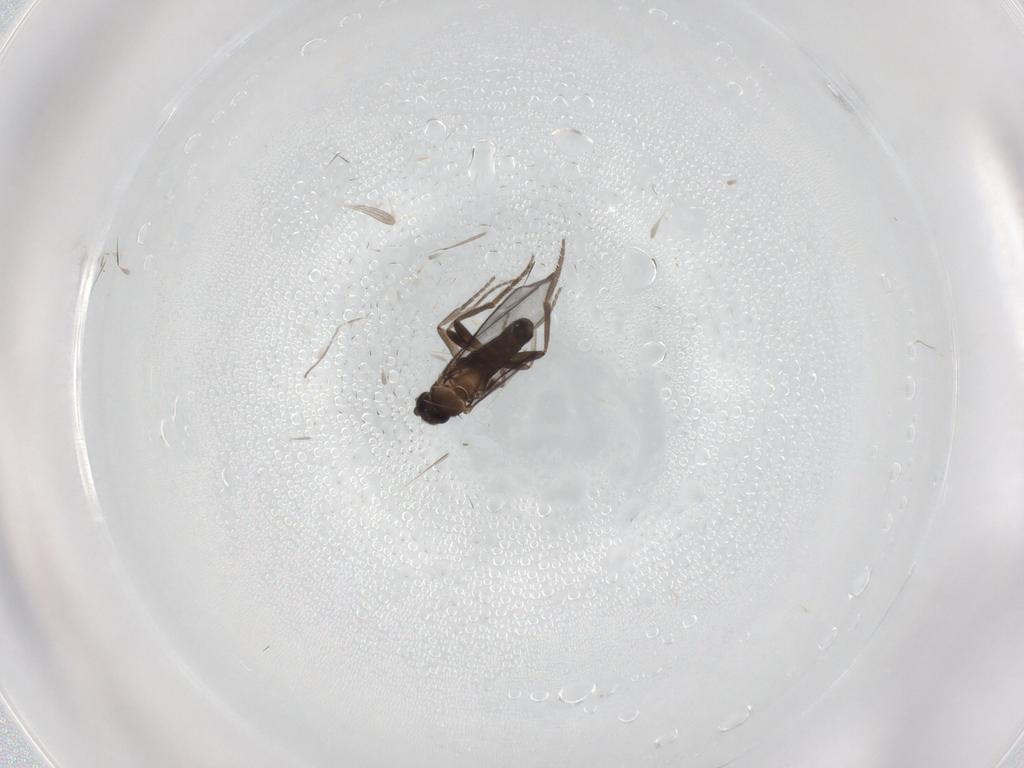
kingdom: Animalia
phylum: Arthropoda
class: Insecta
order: Diptera
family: Phoridae
